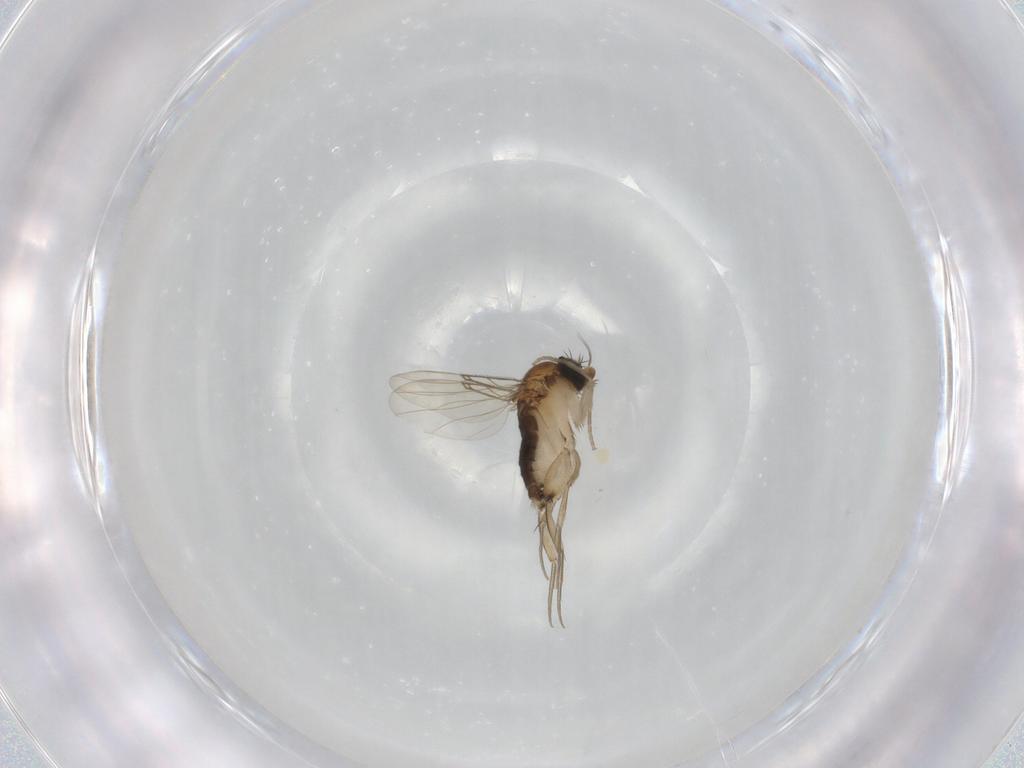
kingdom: Animalia
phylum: Arthropoda
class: Insecta
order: Diptera
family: Phoridae
